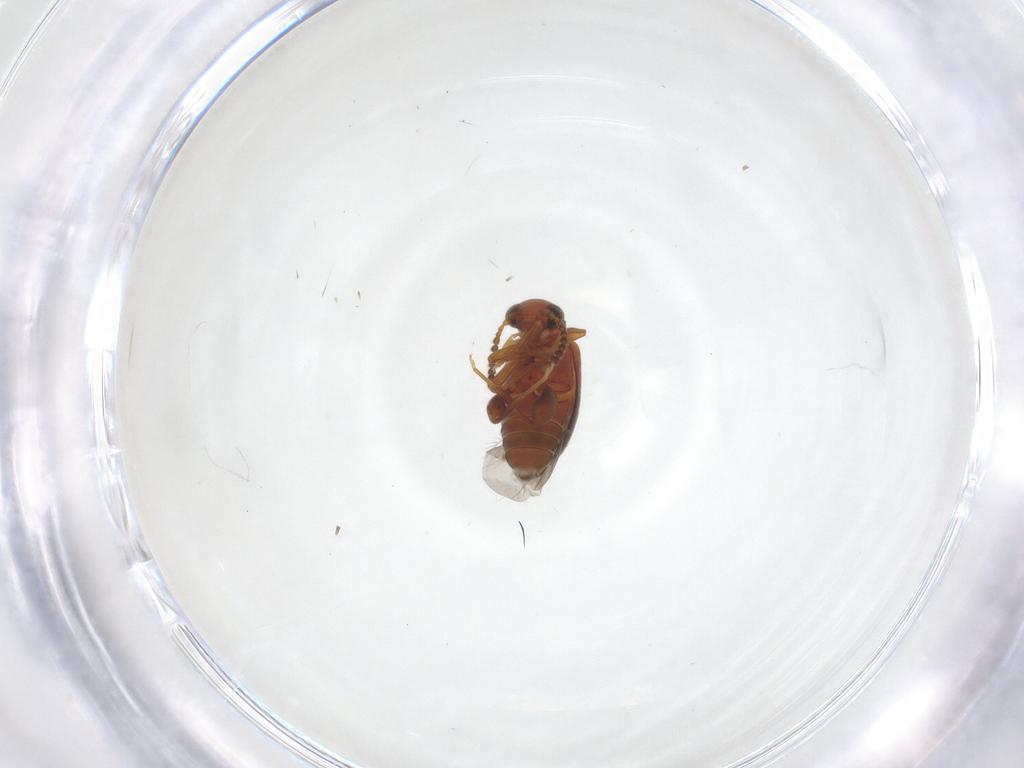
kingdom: Animalia
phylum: Arthropoda
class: Insecta
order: Coleoptera
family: Aderidae
